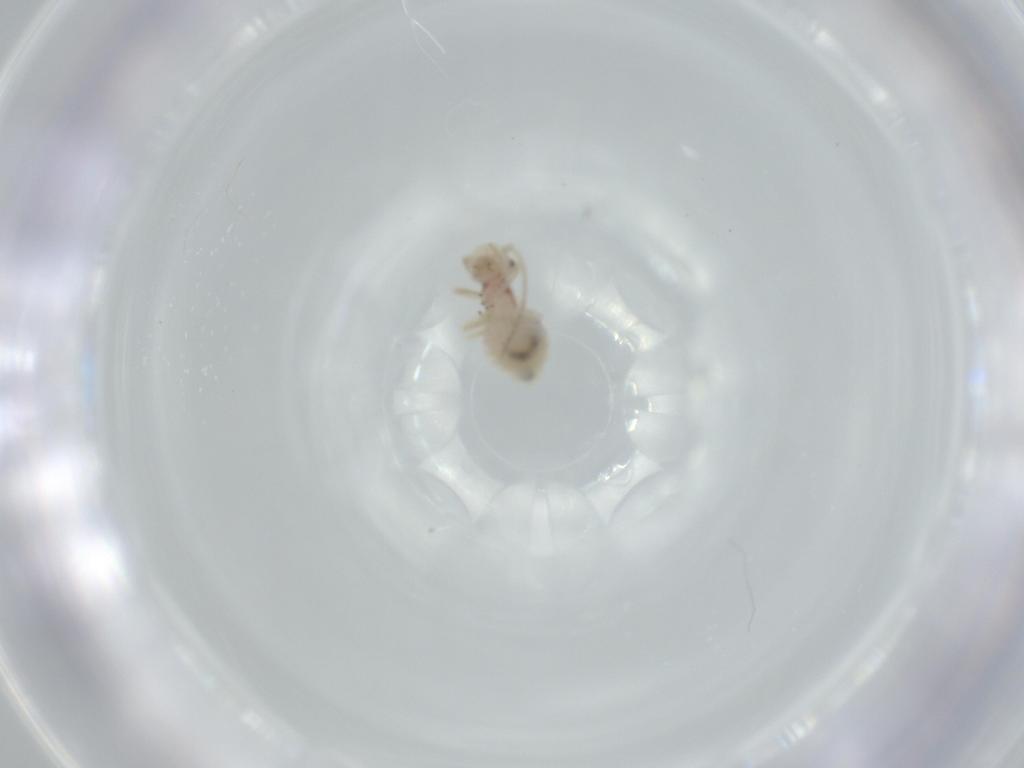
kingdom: Animalia
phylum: Arthropoda
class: Insecta
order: Psocodea
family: Caeciliusidae
